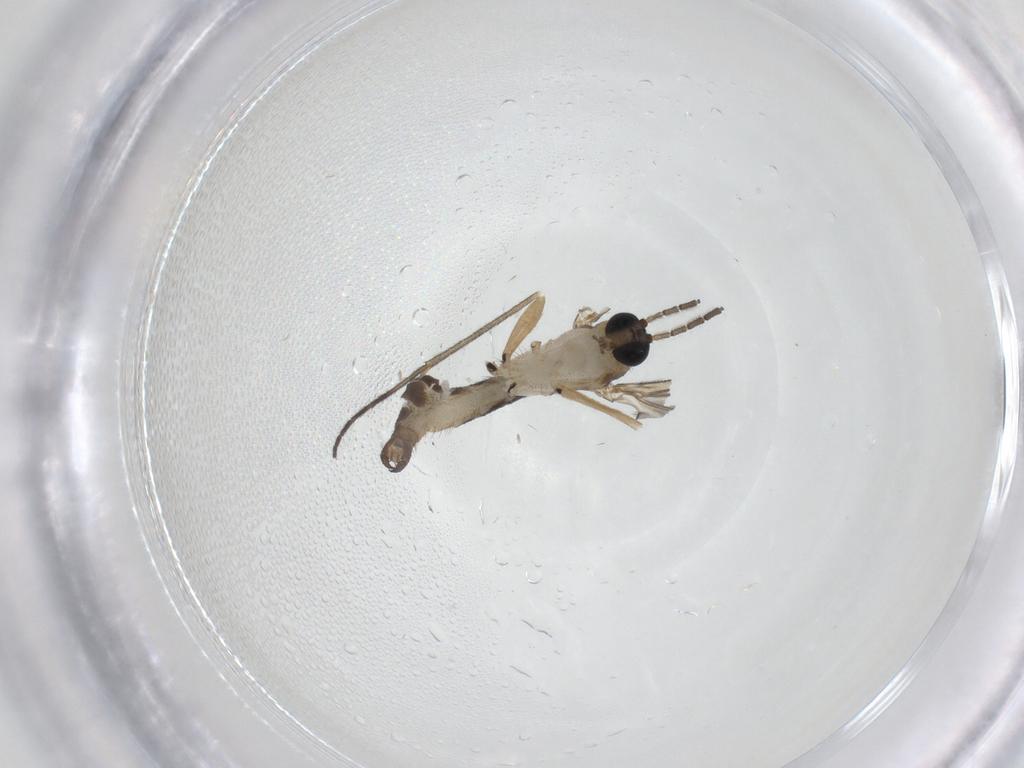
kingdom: Animalia
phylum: Arthropoda
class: Insecta
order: Diptera
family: Sciaridae
